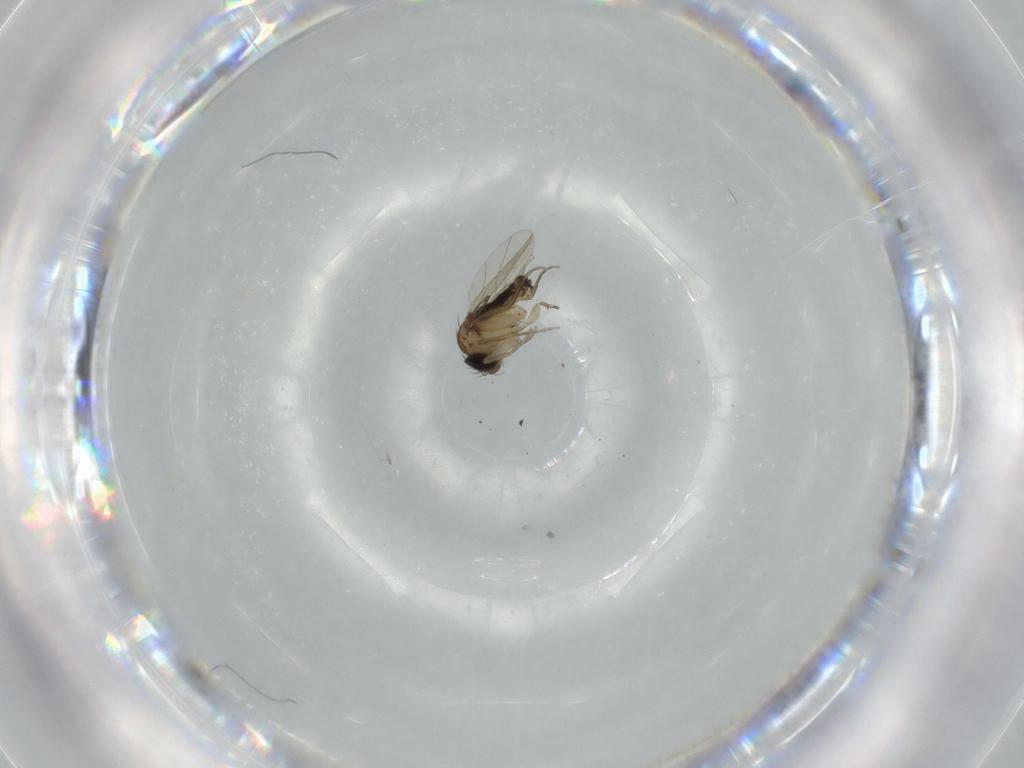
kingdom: Animalia
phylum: Arthropoda
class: Insecta
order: Diptera
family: Phoridae
